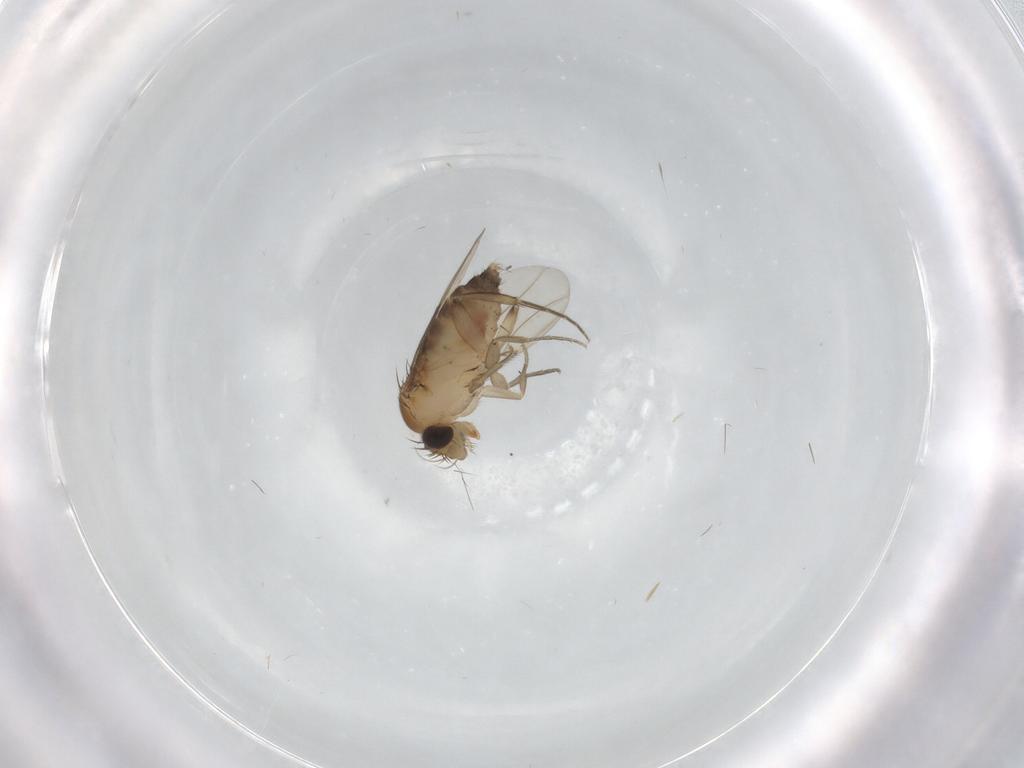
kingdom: Animalia
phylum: Arthropoda
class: Insecta
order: Diptera
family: Phoridae
